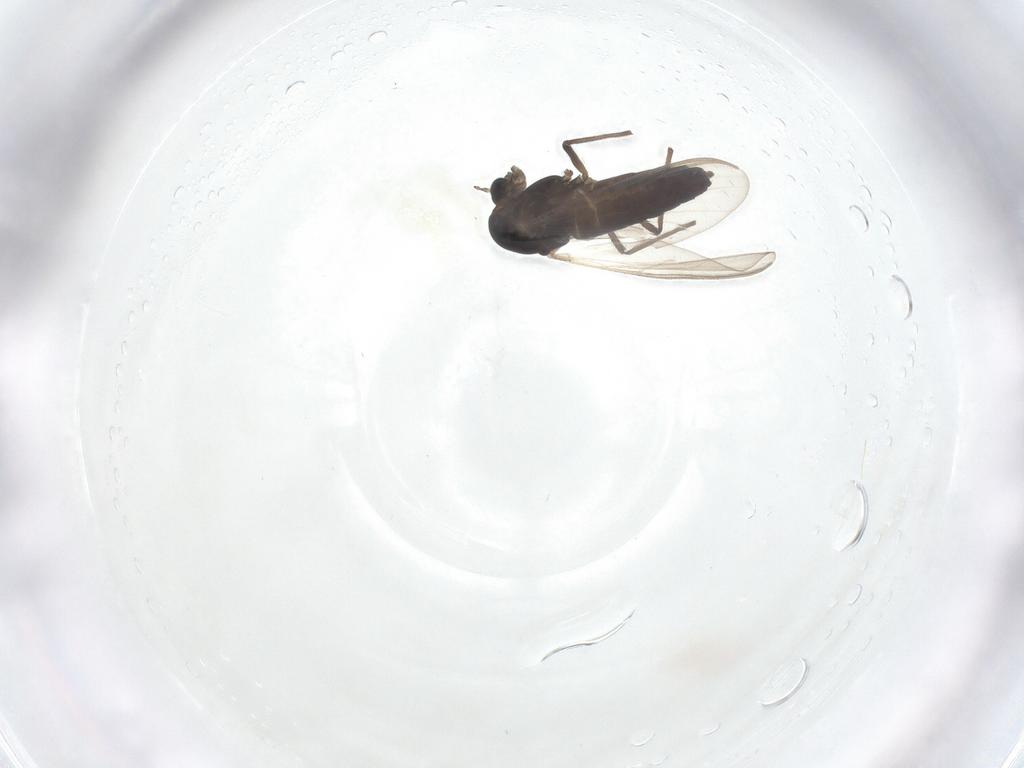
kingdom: Animalia
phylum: Arthropoda
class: Insecta
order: Diptera
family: Chironomidae
